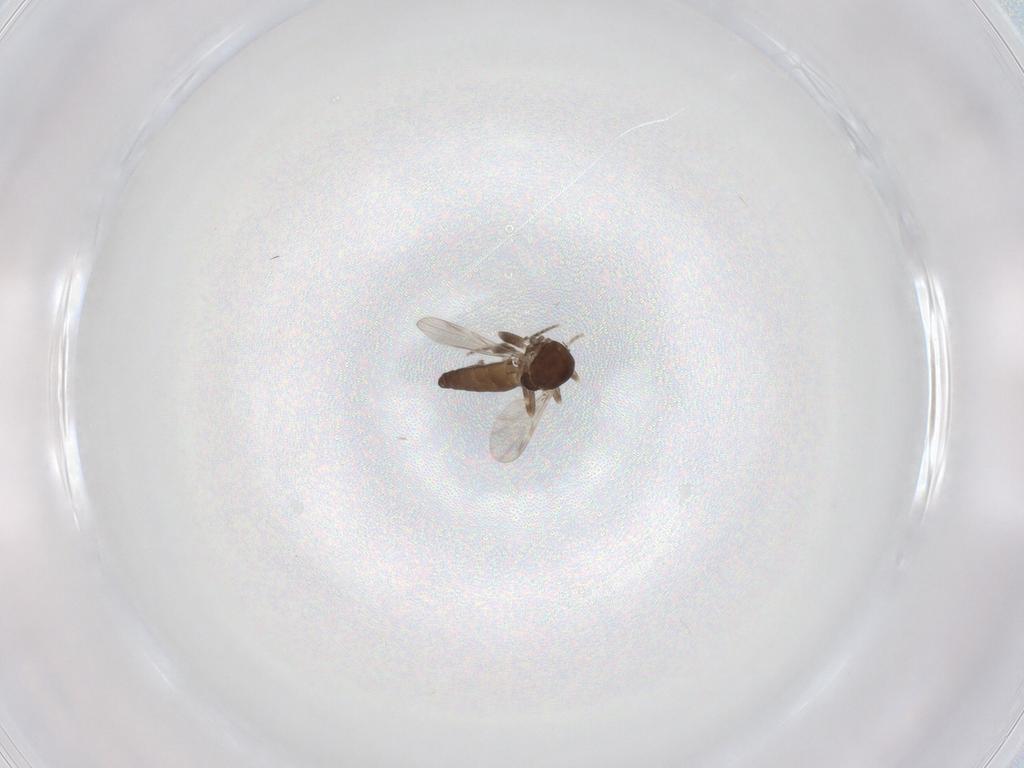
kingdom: Animalia
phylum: Arthropoda
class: Insecta
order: Diptera
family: Ceratopogonidae
